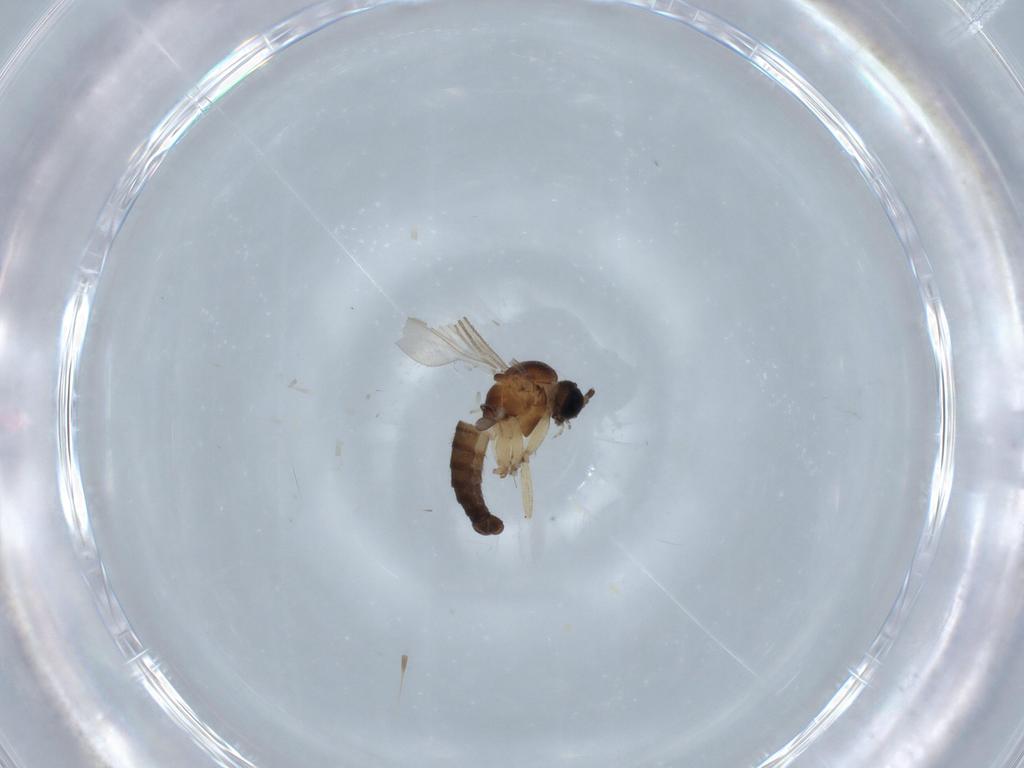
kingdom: Animalia
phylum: Arthropoda
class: Insecta
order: Diptera
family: Sciaridae
